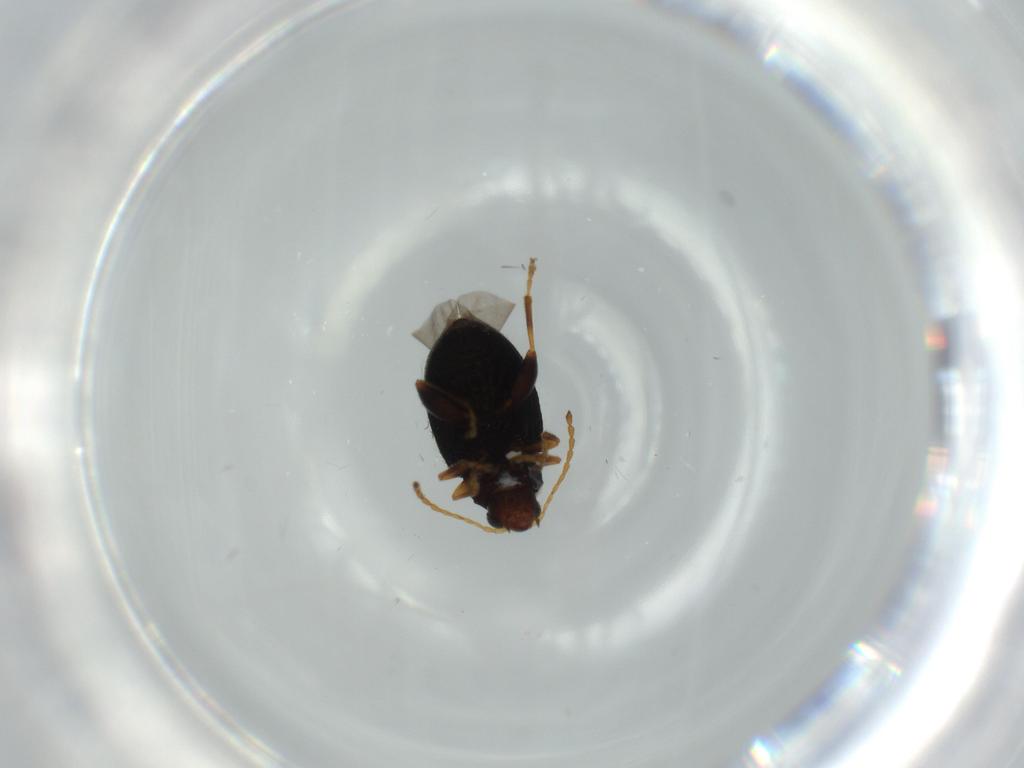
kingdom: Animalia
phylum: Arthropoda
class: Insecta
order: Coleoptera
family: Chrysomelidae
